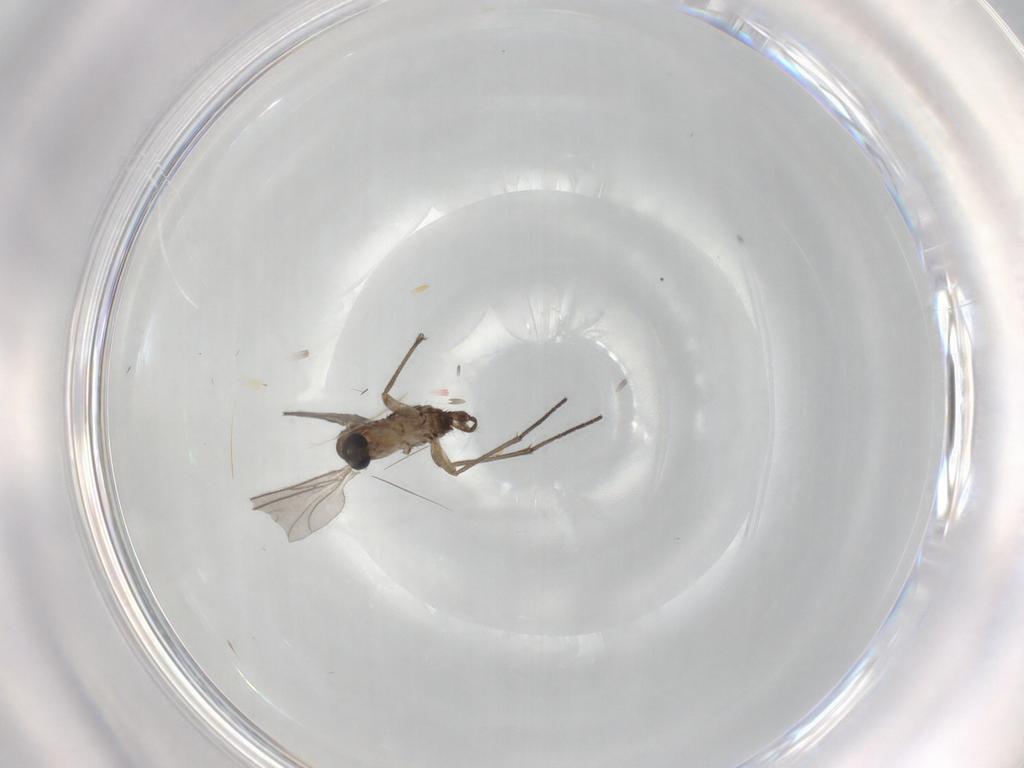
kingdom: Animalia
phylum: Arthropoda
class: Insecta
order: Diptera
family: Sciaridae
